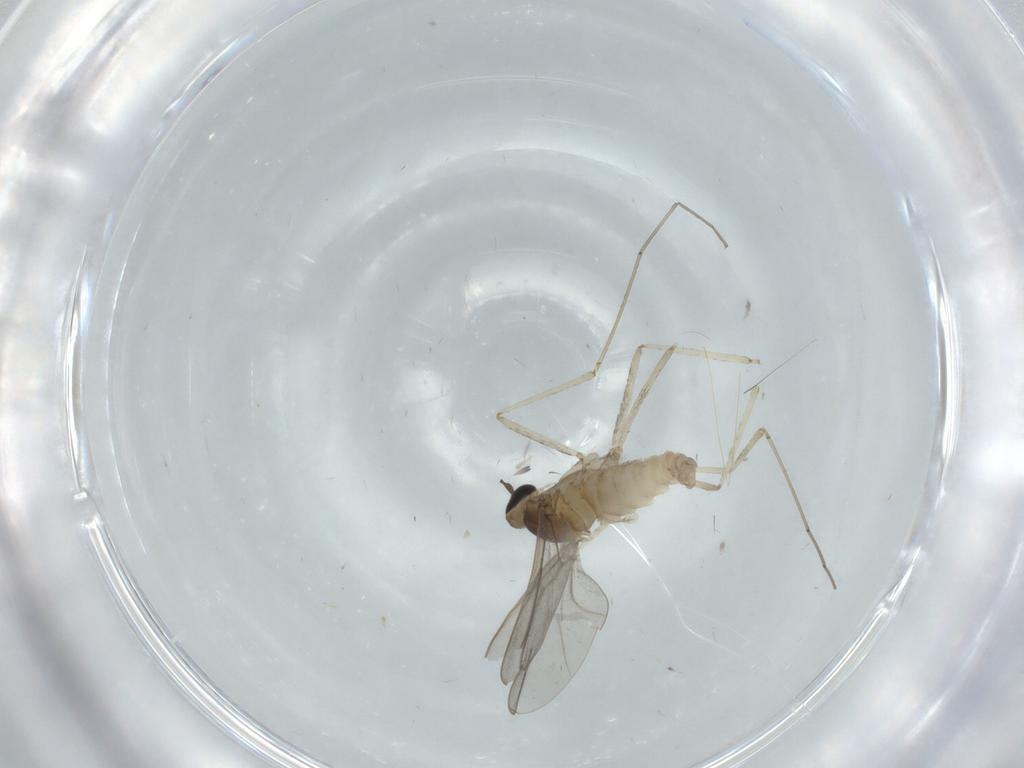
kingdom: Animalia
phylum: Arthropoda
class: Insecta
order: Diptera
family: Cecidomyiidae
